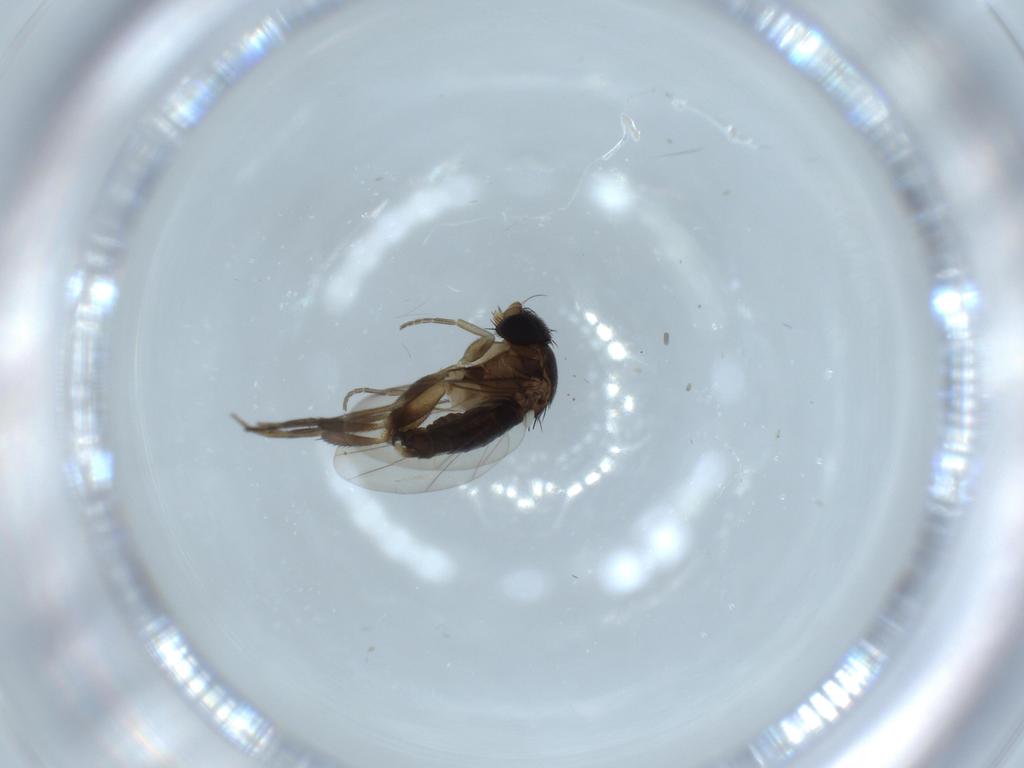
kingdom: Animalia
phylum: Arthropoda
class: Insecta
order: Diptera
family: Phoridae
